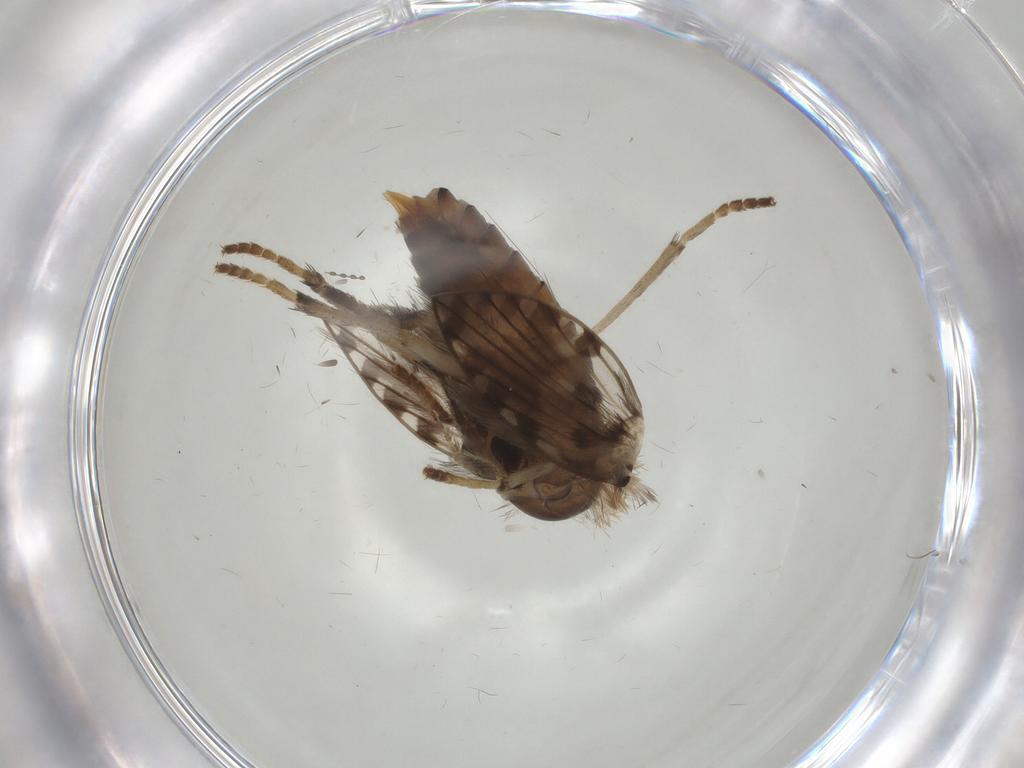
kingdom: Animalia
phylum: Arthropoda
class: Insecta
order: Diptera
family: Psychodidae
